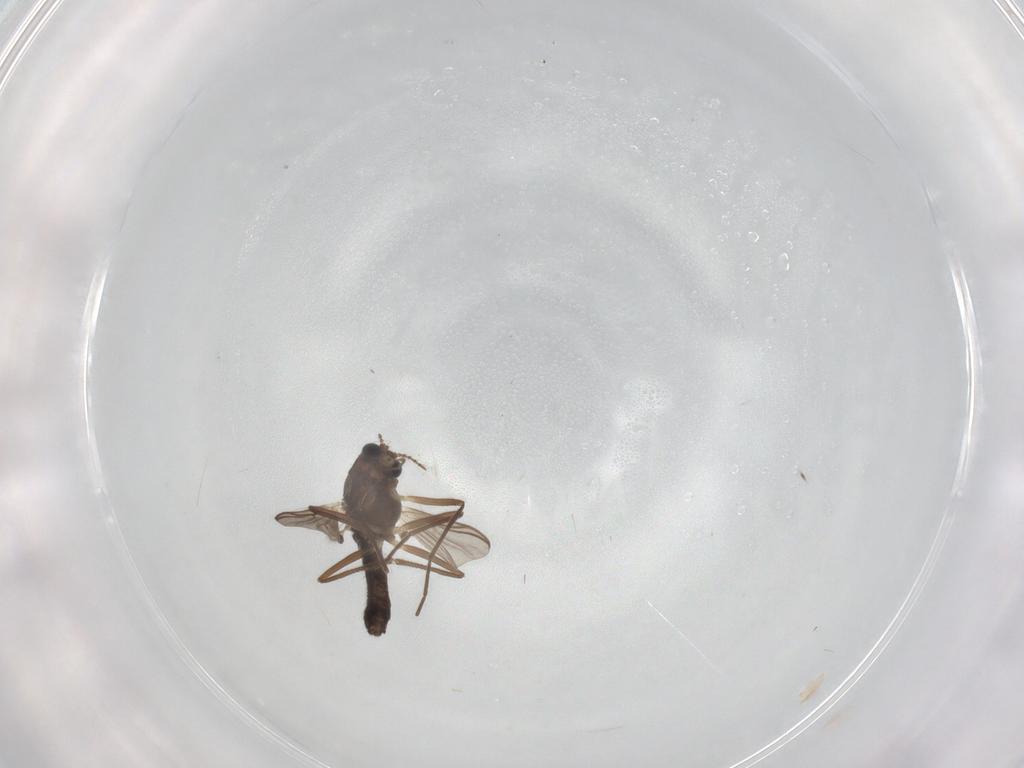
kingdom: Animalia
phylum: Arthropoda
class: Insecta
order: Diptera
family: Chironomidae
